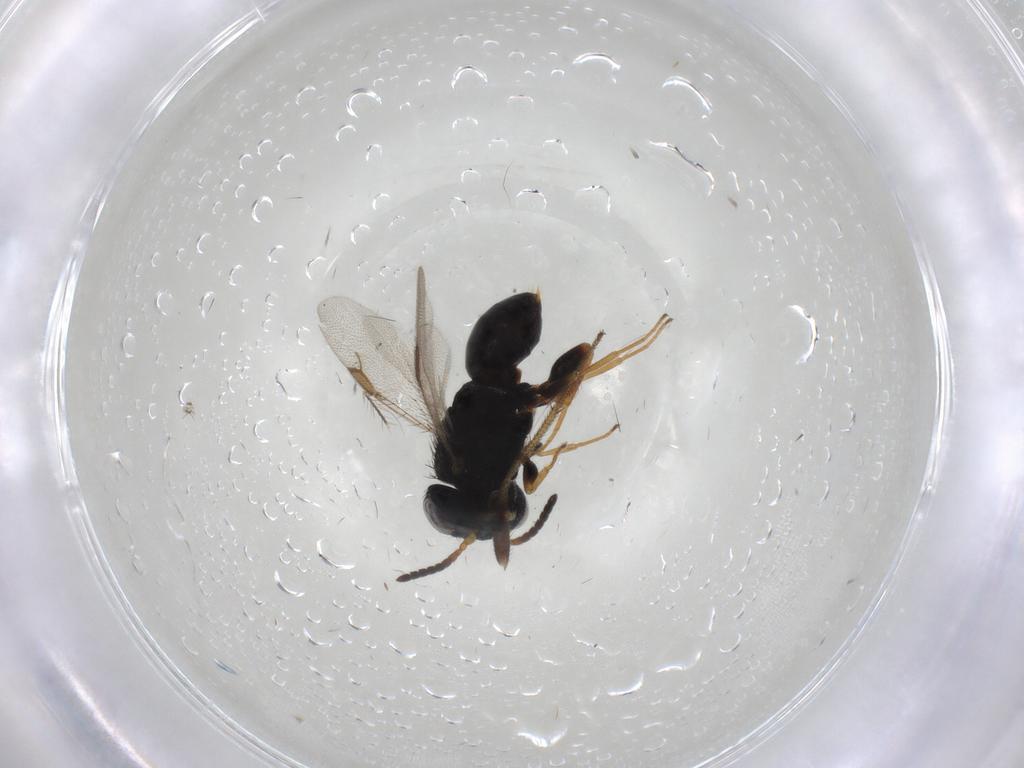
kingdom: Animalia
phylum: Arthropoda
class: Insecta
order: Hymenoptera
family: Dryinidae
